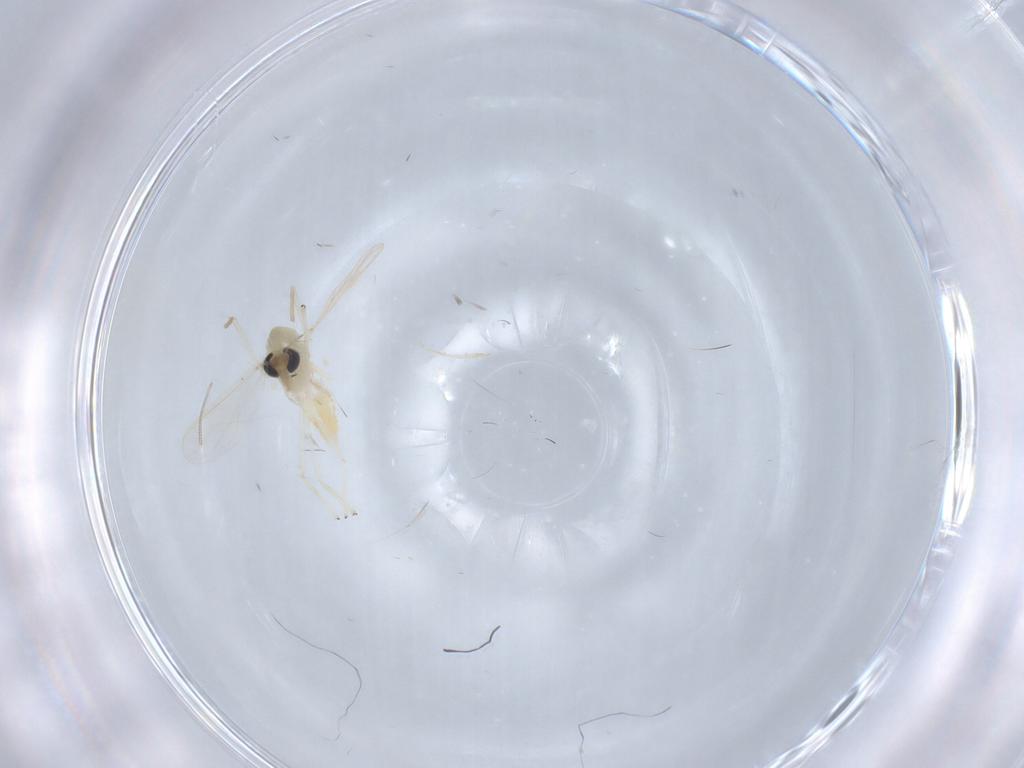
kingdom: Animalia
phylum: Arthropoda
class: Insecta
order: Diptera
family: Chironomidae
